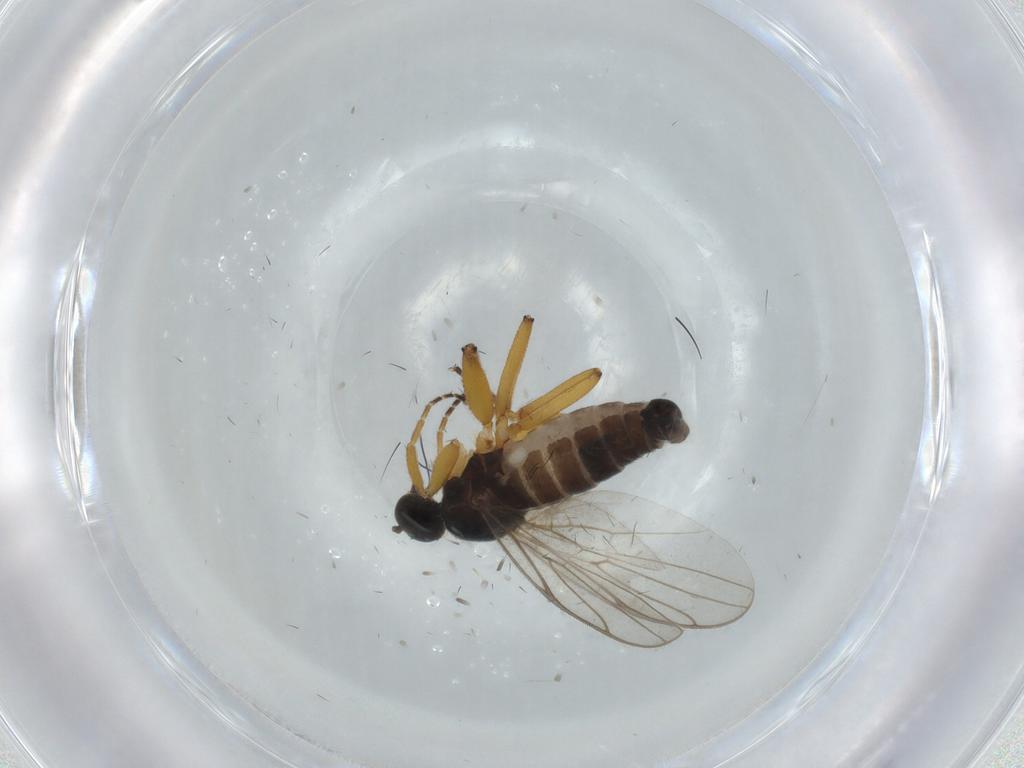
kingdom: Animalia
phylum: Arthropoda
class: Insecta
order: Diptera
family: Hybotidae
